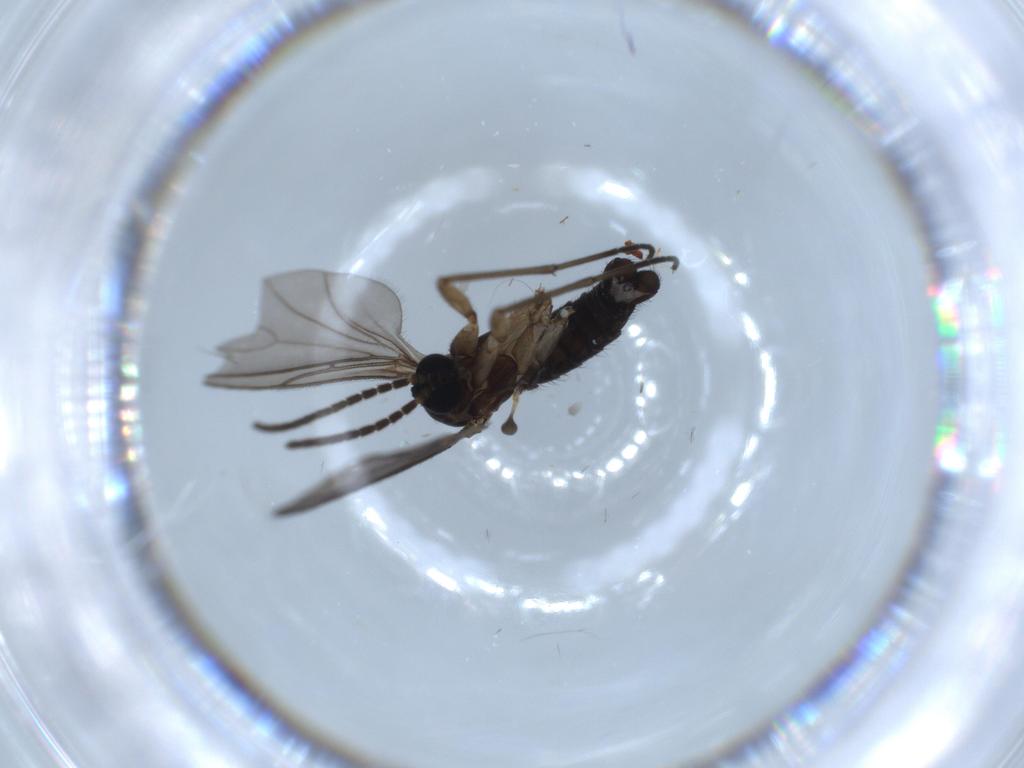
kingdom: Animalia
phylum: Arthropoda
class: Insecta
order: Diptera
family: Sciaridae
